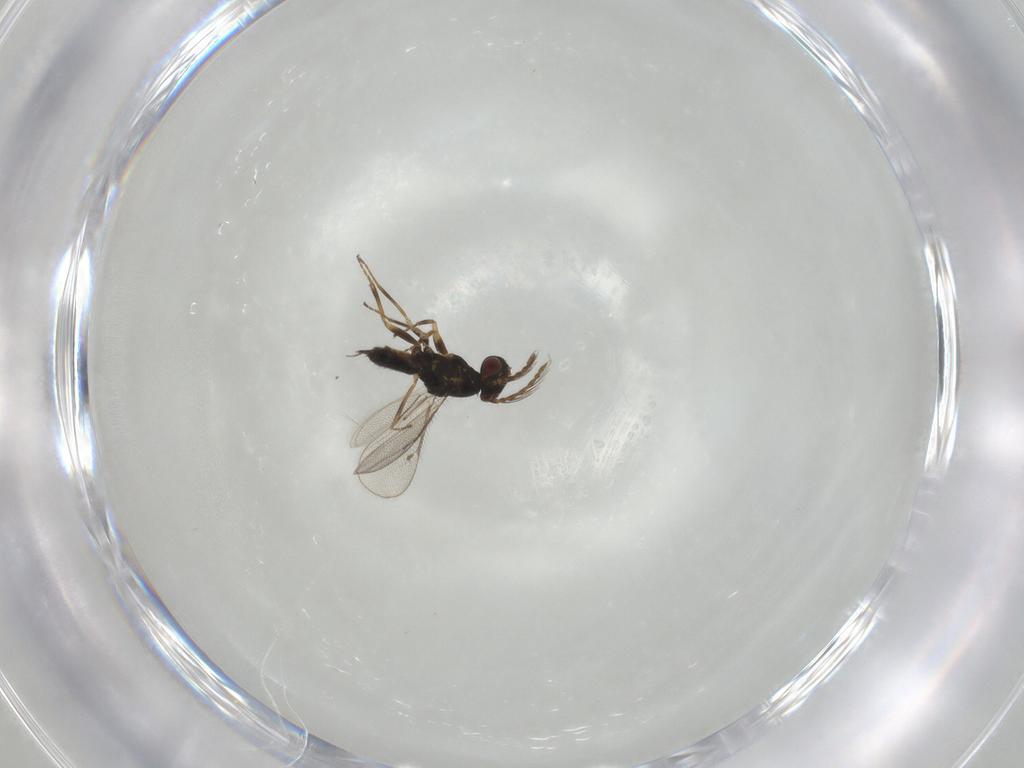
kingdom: Animalia
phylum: Arthropoda
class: Insecta
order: Hymenoptera
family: Eulophidae
